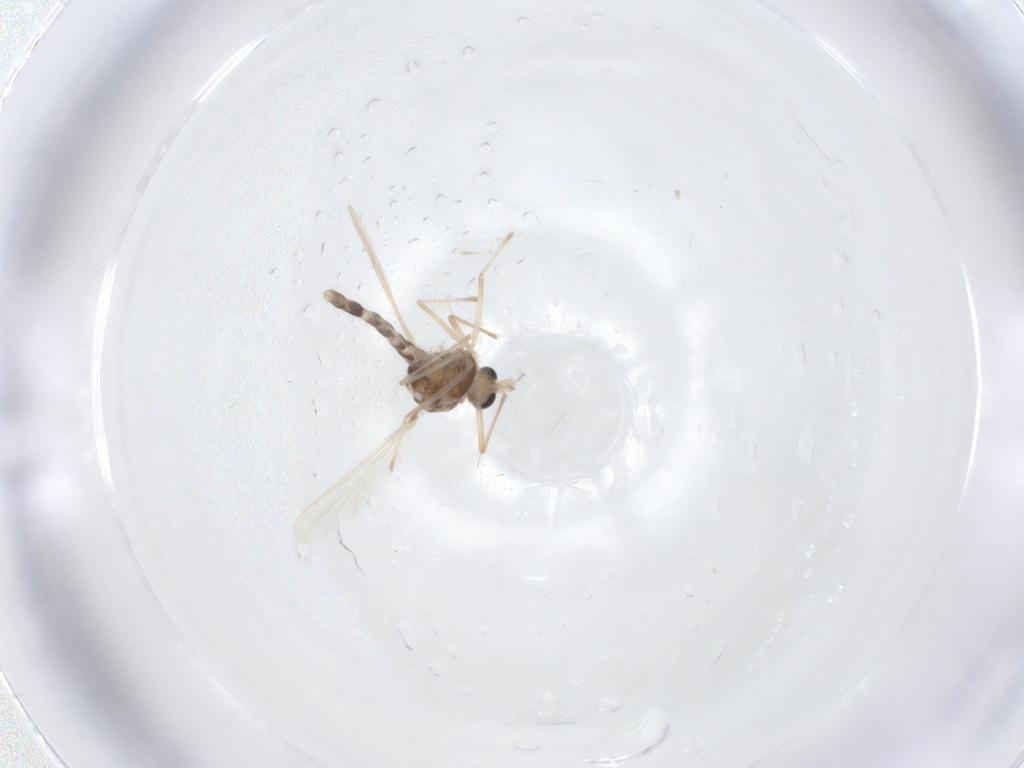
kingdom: Animalia
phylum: Arthropoda
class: Insecta
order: Diptera
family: Chironomidae
